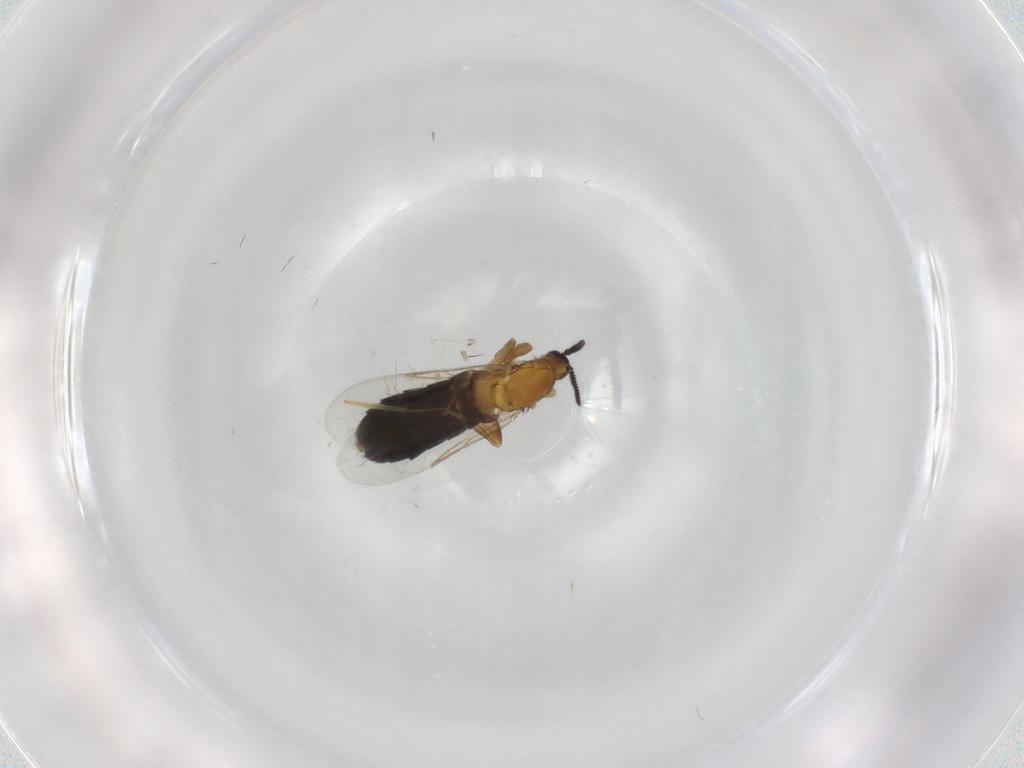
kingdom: Animalia
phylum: Arthropoda
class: Insecta
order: Diptera
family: Scatopsidae
